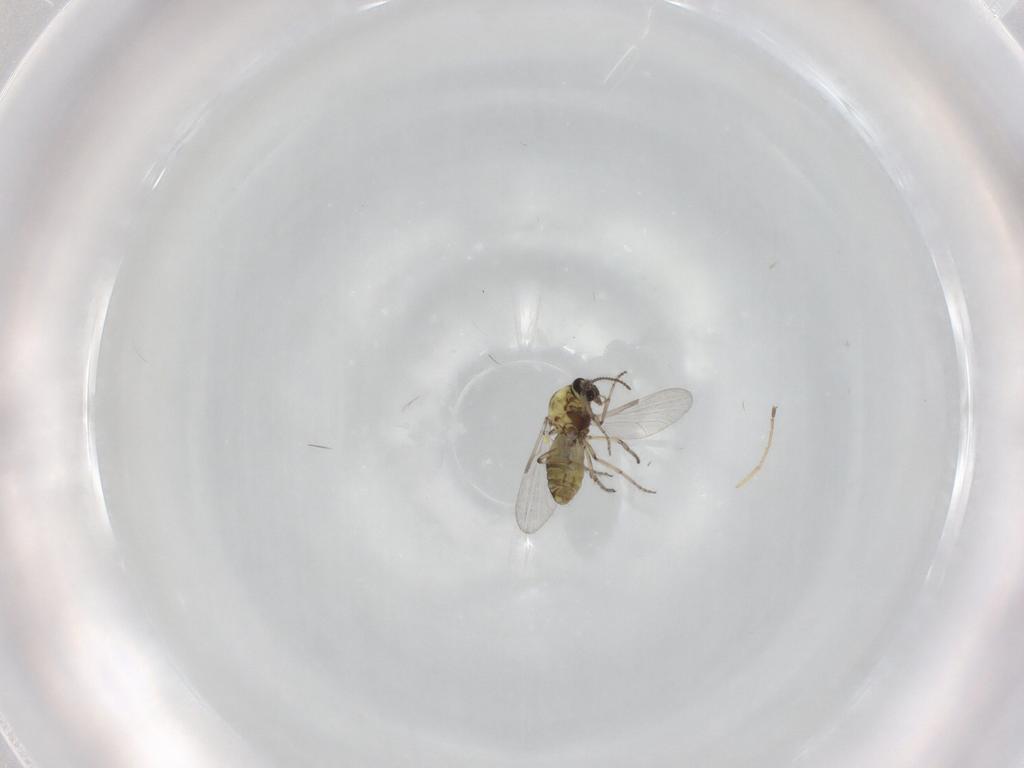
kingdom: Animalia
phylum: Arthropoda
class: Insecta
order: Diptera
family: Ceratopogonidae
